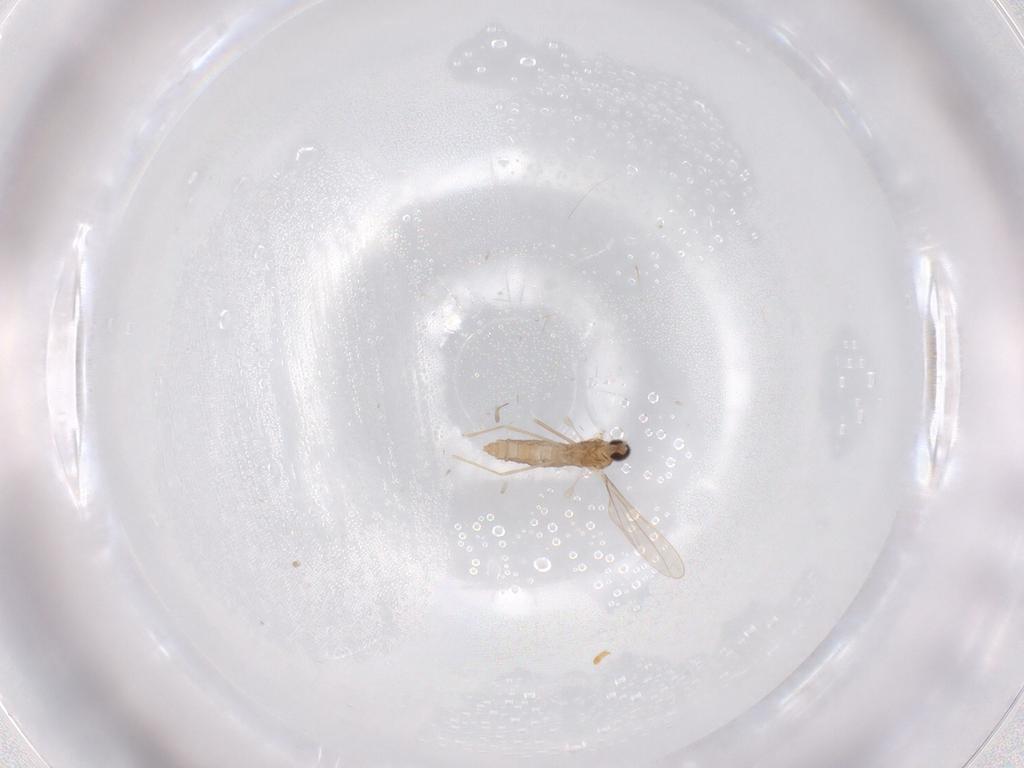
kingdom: Animalia
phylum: Arthropoda
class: Insecta
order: Diptera
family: Cecidomyiidae
